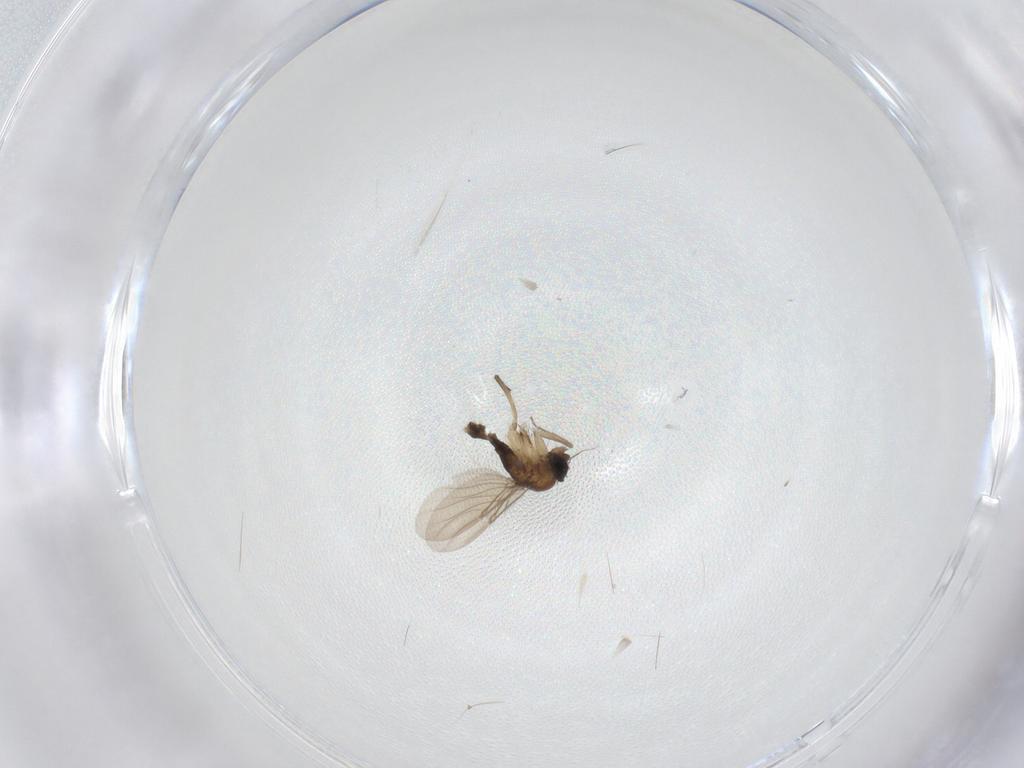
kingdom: Animalia
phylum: Arthropoda
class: Insecta
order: Diptera
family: Phoridae
